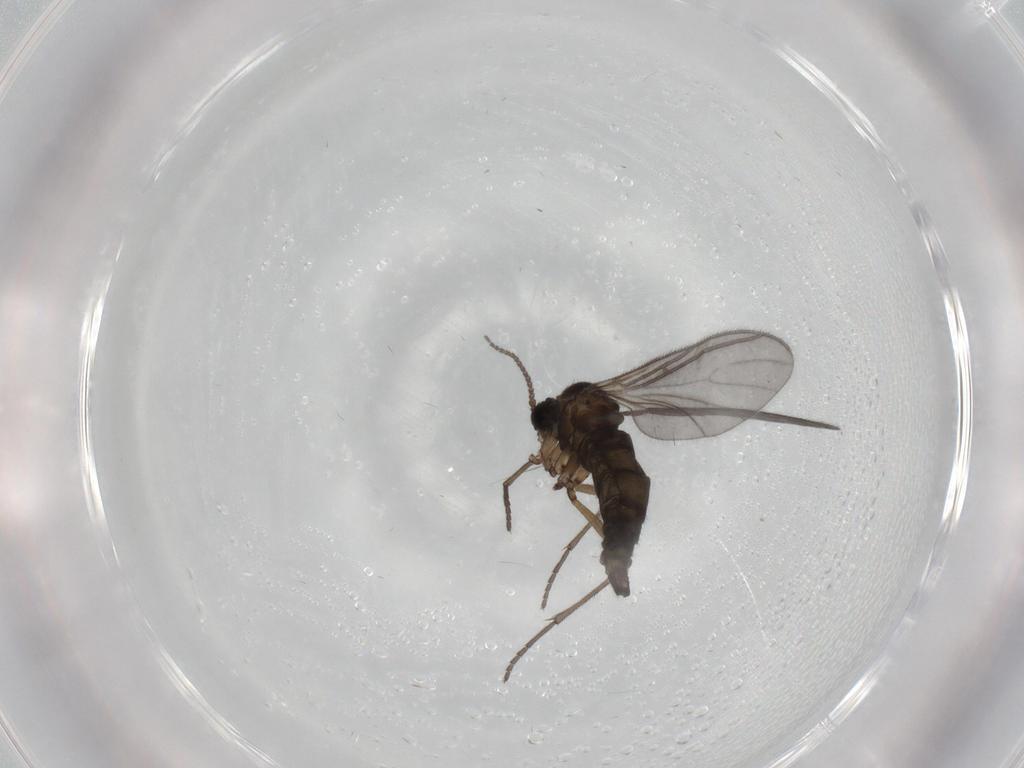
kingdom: Animalia
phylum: Arthropoda
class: Insecta
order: Diptera
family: Sciaridae
